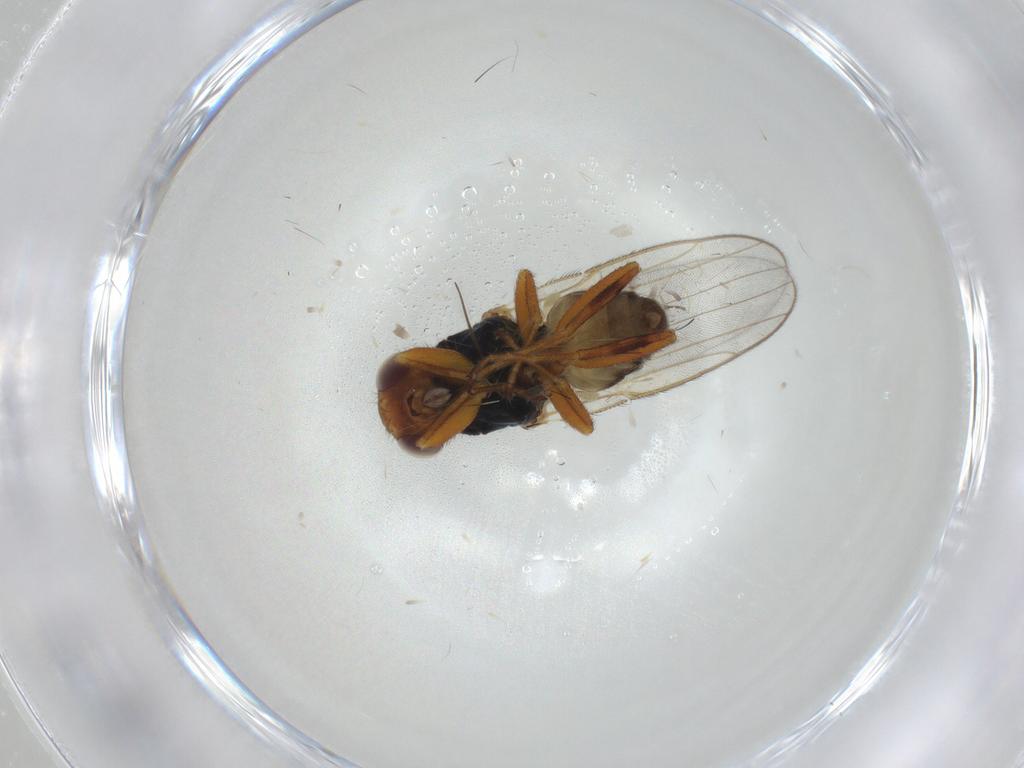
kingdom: Animalia
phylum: Arthropoda
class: Insecta
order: Diptera
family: Chloropidae
